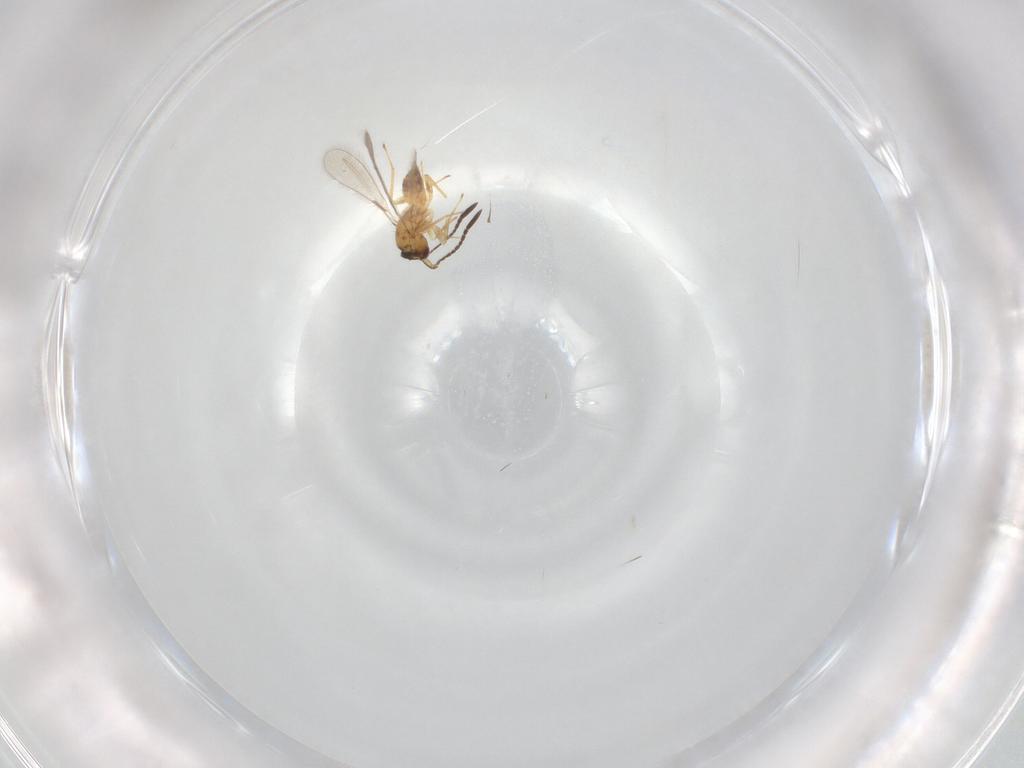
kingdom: Animalia
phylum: Arthropoda
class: Insecta
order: Hymenoptera
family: Mymaridae
